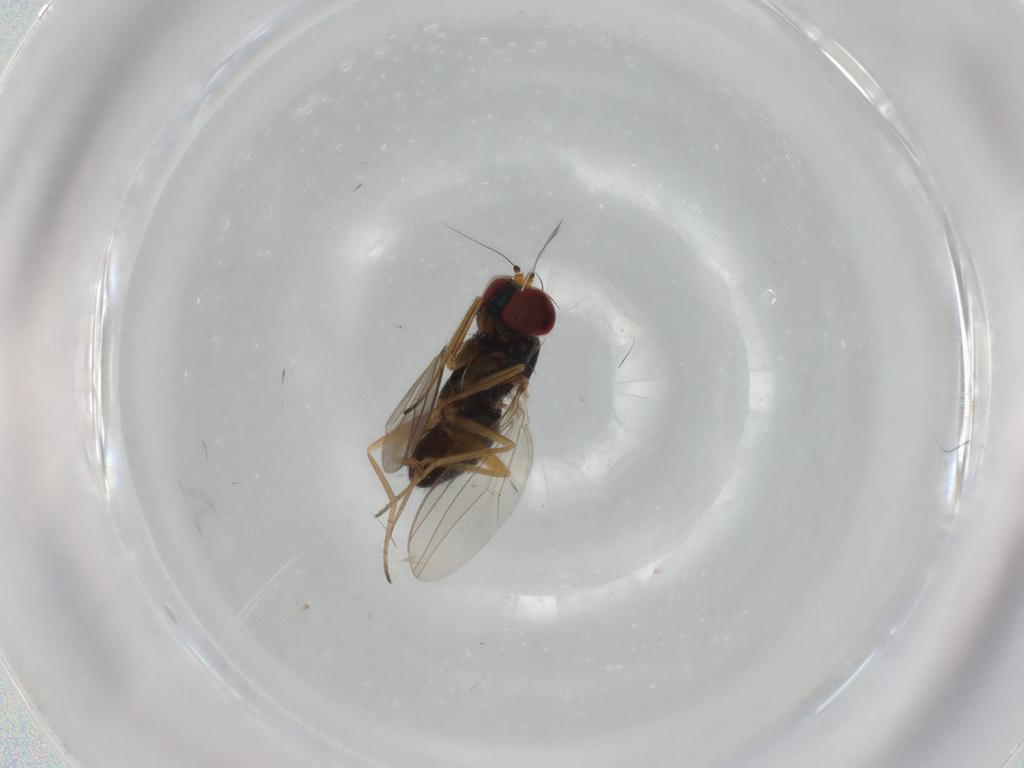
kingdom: Animalia
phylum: Arthropoda
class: Insecta
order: Diptera
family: Dolichopodidae
